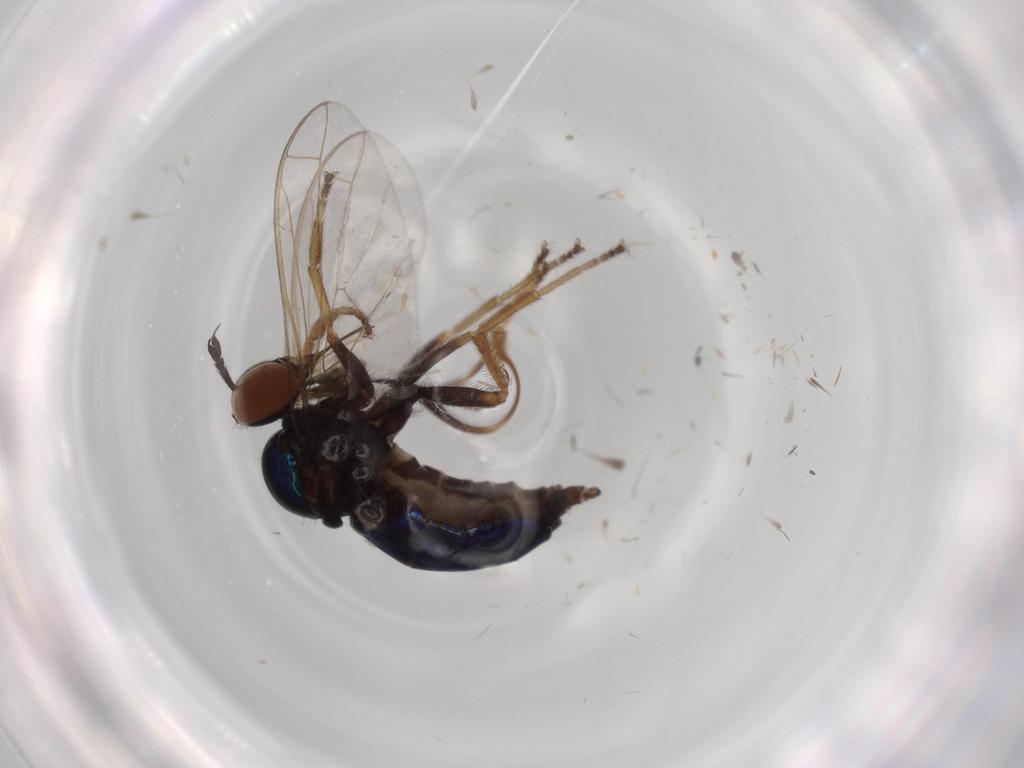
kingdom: Animalia
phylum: Arthropoda
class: Insecta
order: Diptera
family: Empididae
